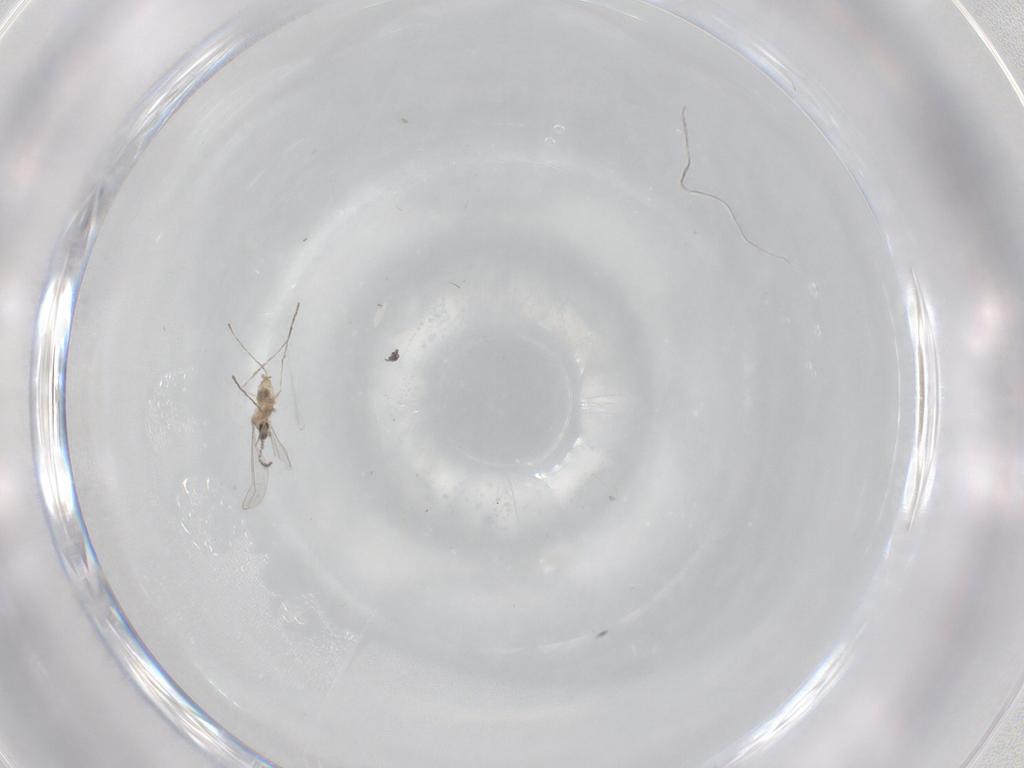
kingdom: Animalia
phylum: Arthropoda
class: Insecta
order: Diptera
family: Cecidomyiidae
